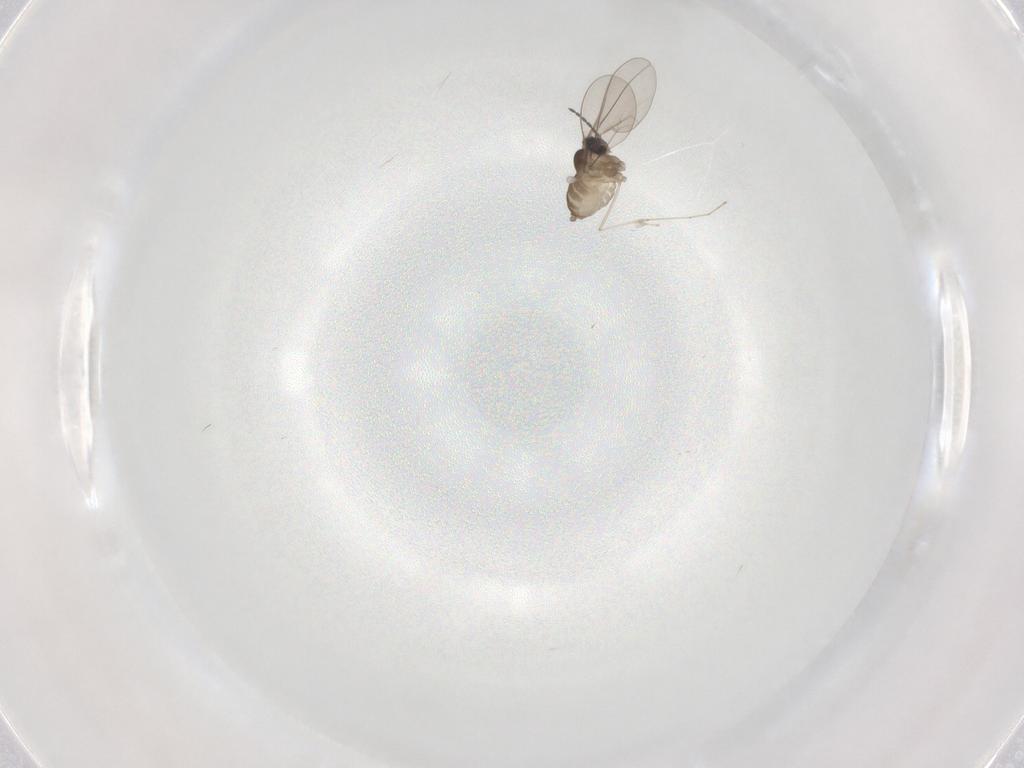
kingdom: Animalia
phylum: Arthropoda
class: Insecta
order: Diptera
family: Cecidomyiidae
